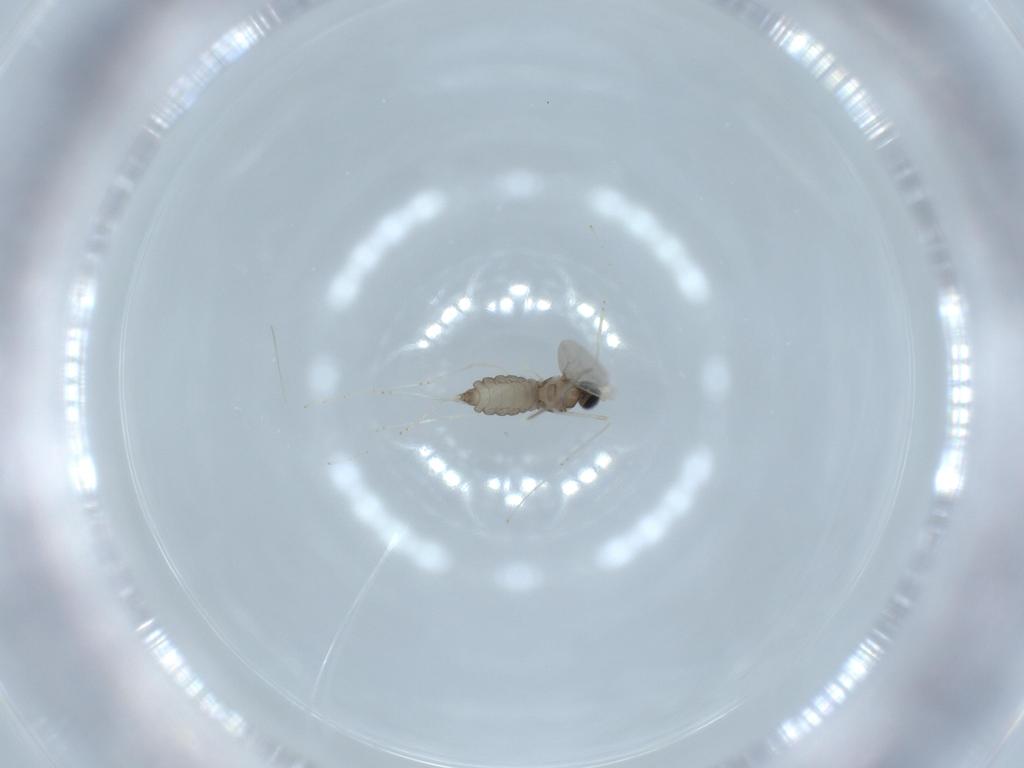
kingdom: Animalia
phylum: Arthropoda
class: Insecta
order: Diptera
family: Cecidomyiidae
